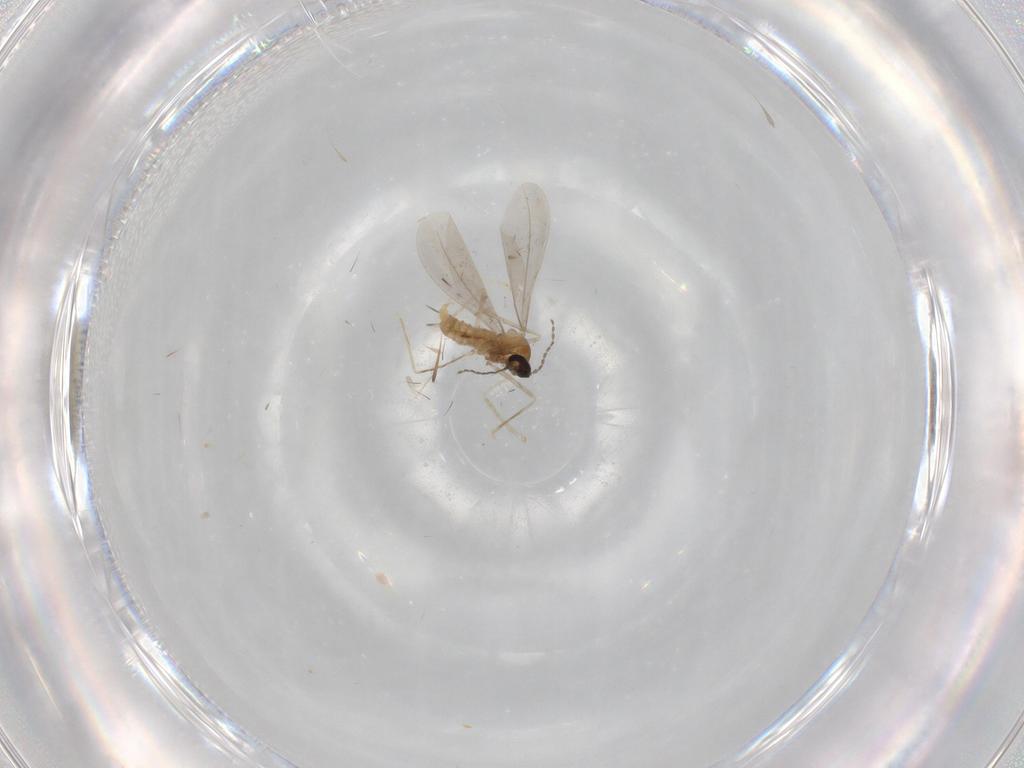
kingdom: Animalia
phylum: Arthropoda
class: Insecta
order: Diptera
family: Cecidomyiidae
